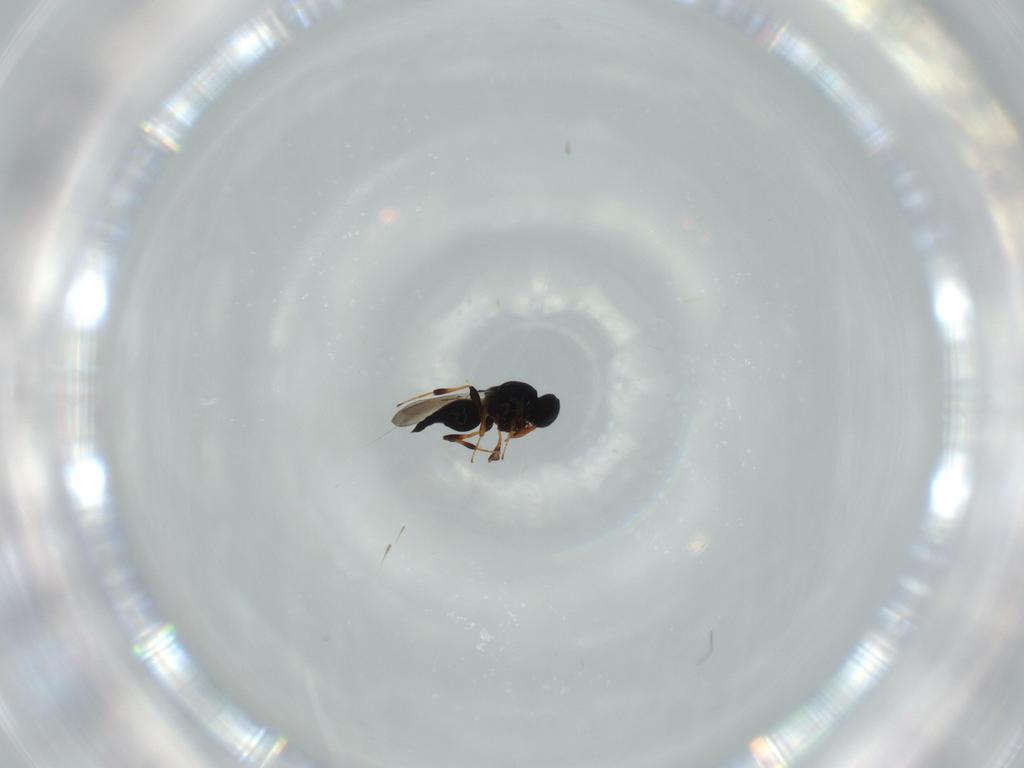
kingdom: Animalia
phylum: Arthropoda
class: Insecta
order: Hymenoptera
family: Platygastridae
